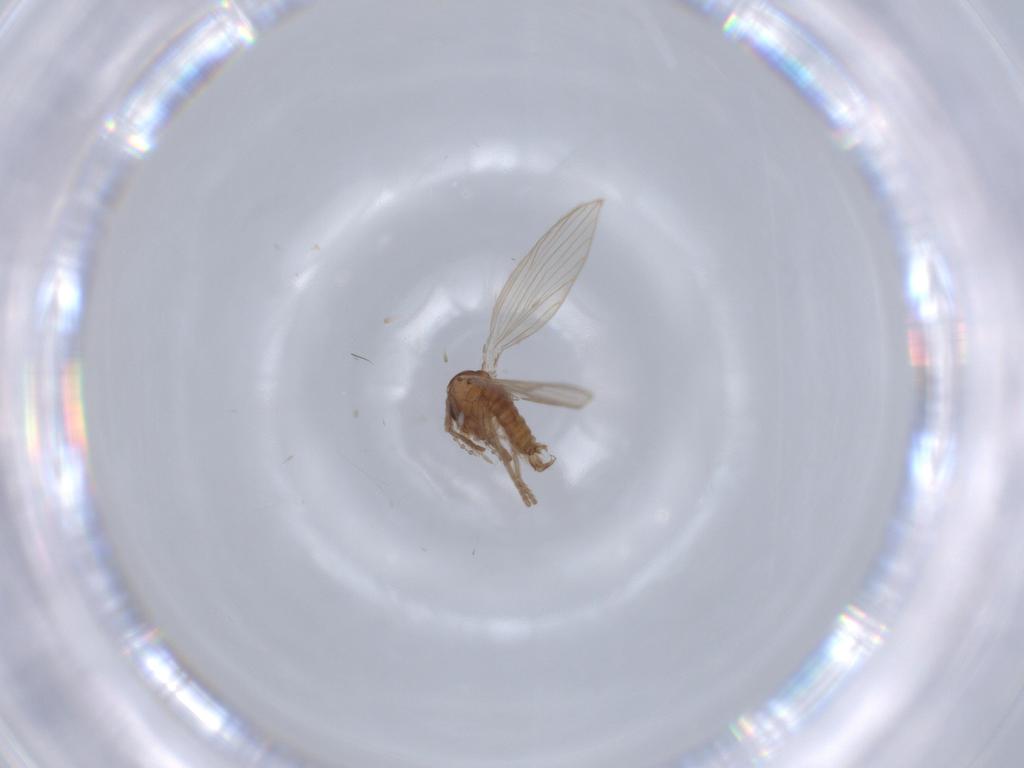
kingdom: Animalia
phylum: Arthropoda
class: Insecta
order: Diptera
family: Psychodidae
